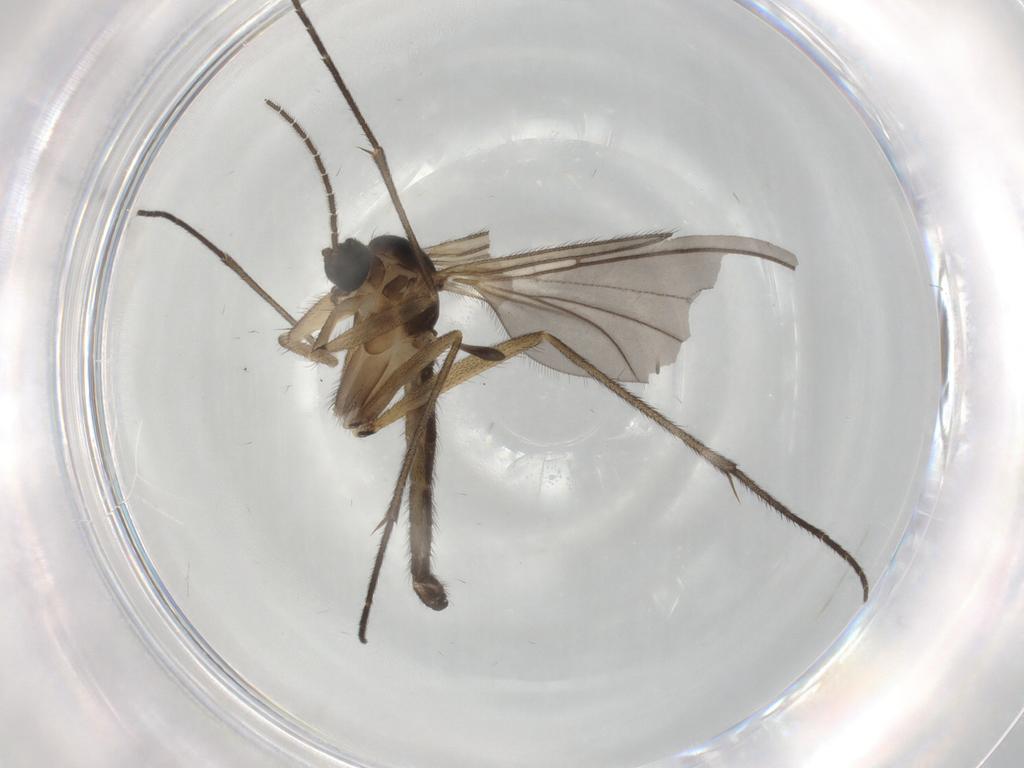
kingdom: Animalia
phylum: Arthropoda
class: Insecta
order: Diptera
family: Sciaridae
